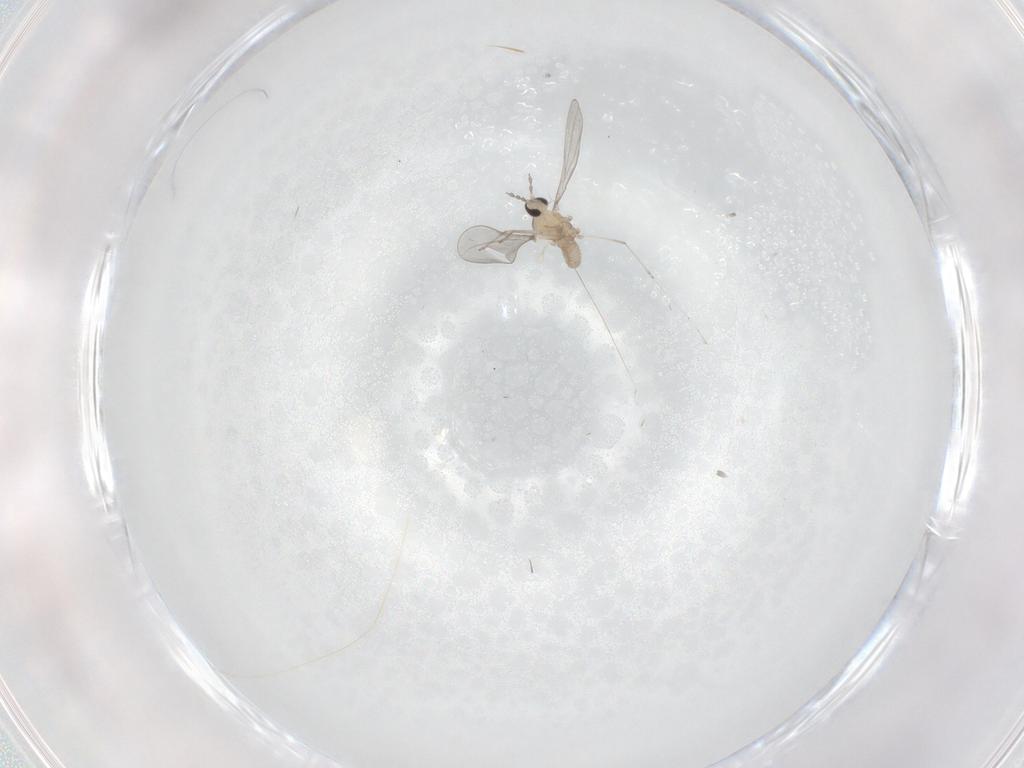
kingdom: Animalia
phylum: Arthropoda
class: Insecta
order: Diptera
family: Cecidomyiidae
